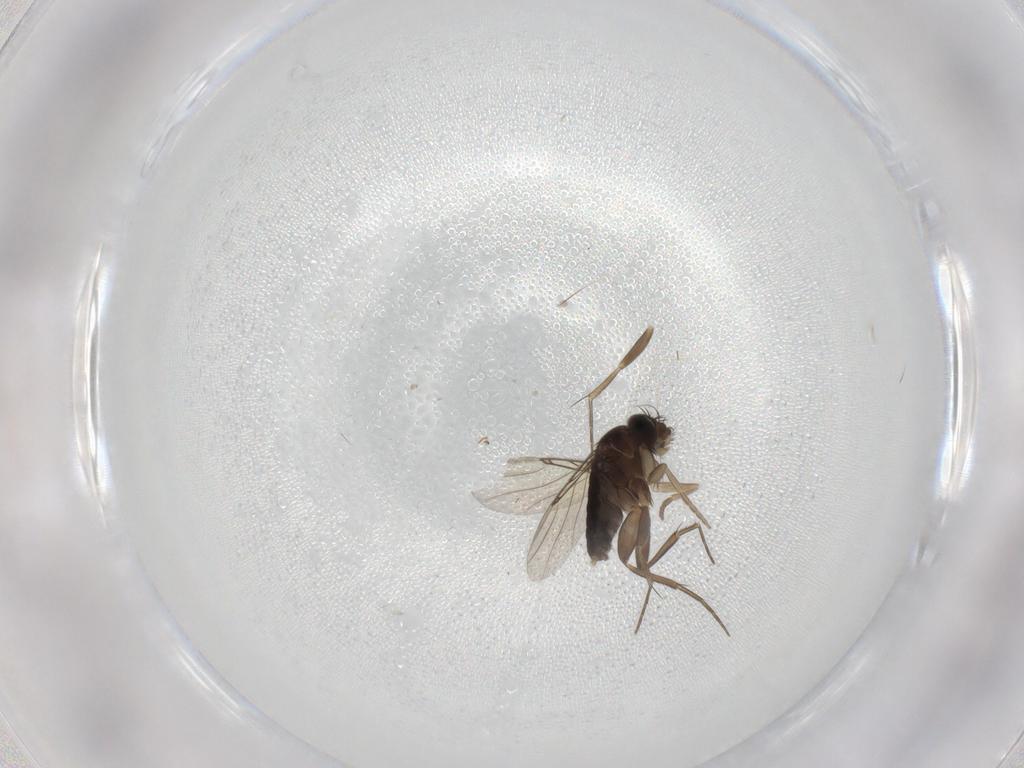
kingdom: Animalia
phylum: Arthropoda
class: Insecta
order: Diptera
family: Phoridae
